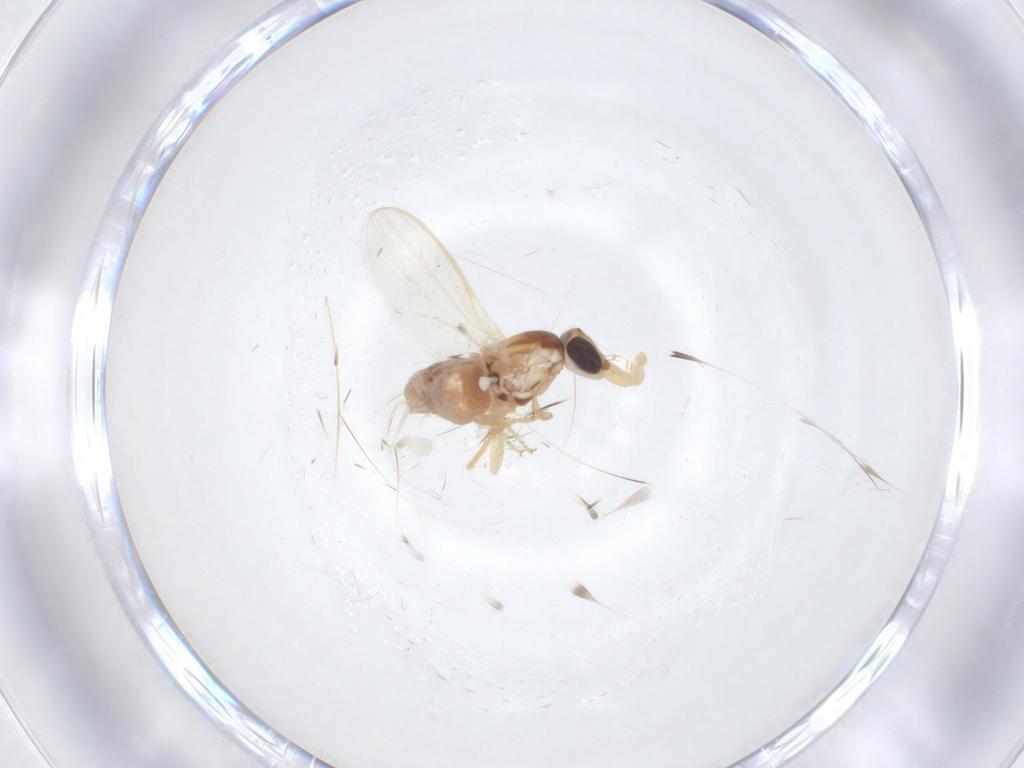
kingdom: Animalia
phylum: Arthropoda
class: Insecta
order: Diptera
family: Chloropidae
